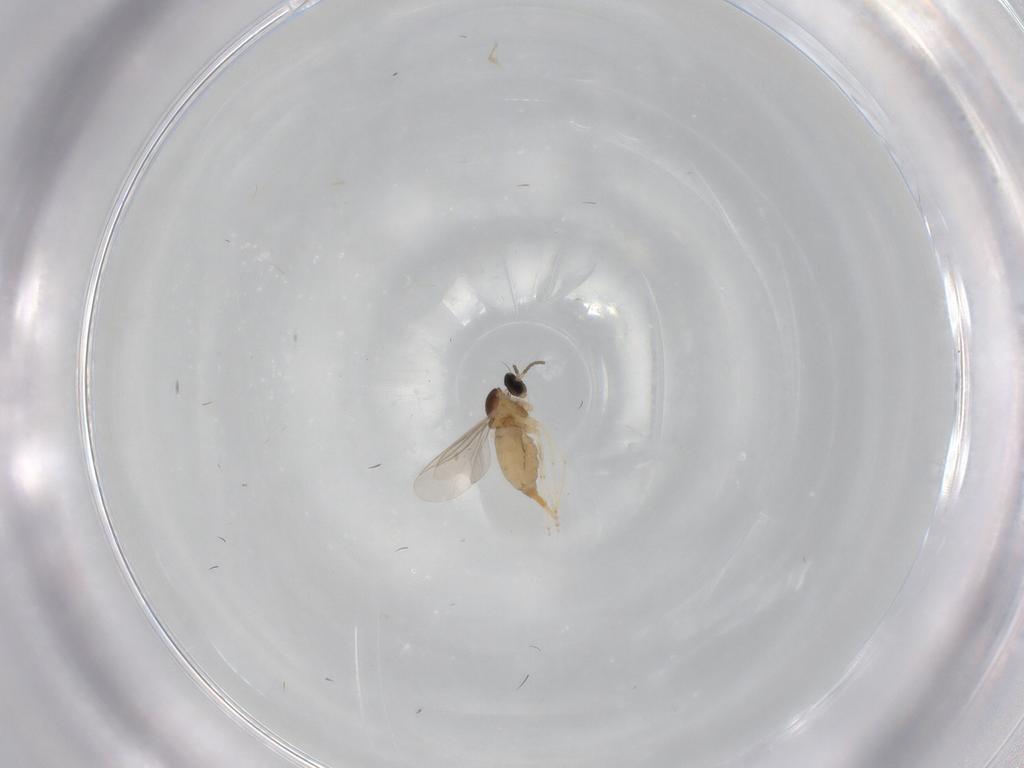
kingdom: Animalia
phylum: Arthropoda
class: Insecta
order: Diptera
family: Cecidomyiidae
